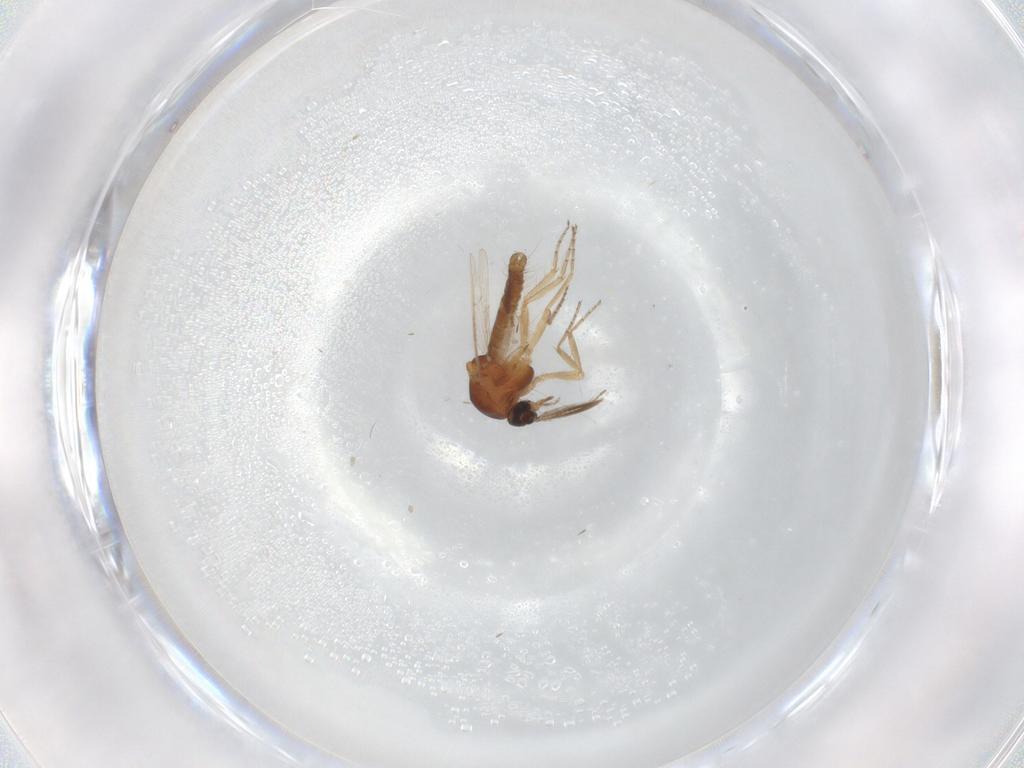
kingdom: Animalia
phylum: Arthropoda
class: Insecta
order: Diptera
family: Ceratopogonidae
